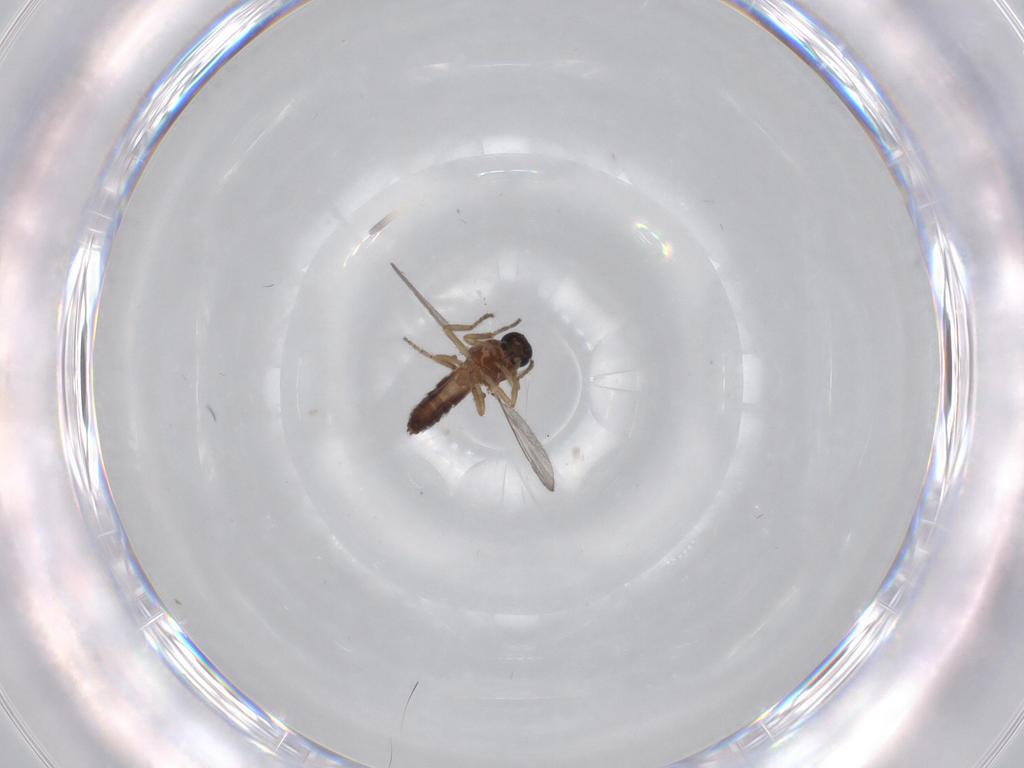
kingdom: Animalia
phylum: Arthropoda
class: Insecta
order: Diptera
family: Ceratopogonidae
